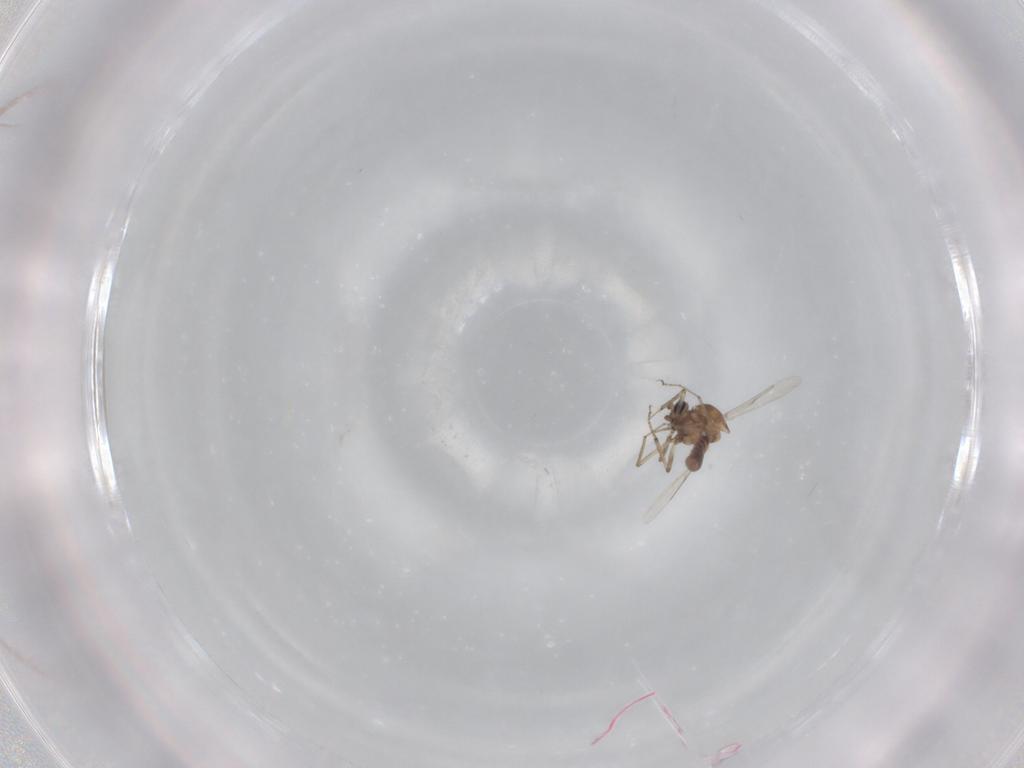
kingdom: Animalia
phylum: Arthropoda
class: Insecta
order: Diptera
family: Ceratopogonidae
